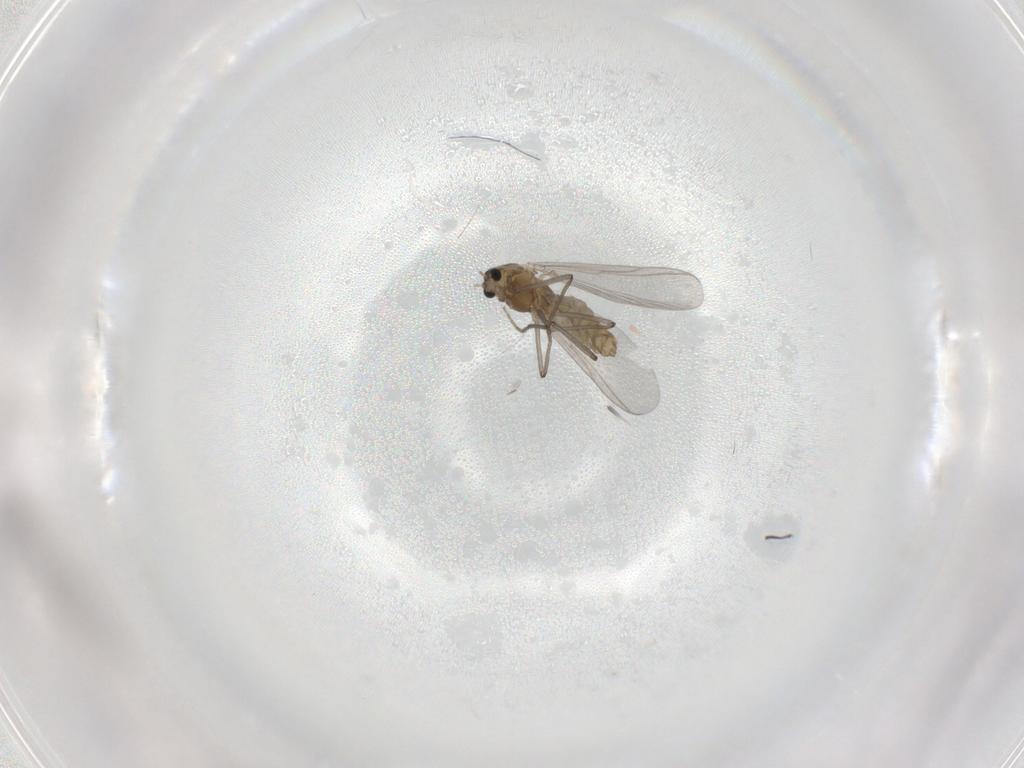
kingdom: Animalia
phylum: Arthropoda
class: Insecta
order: Diptera
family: Chironomidae
